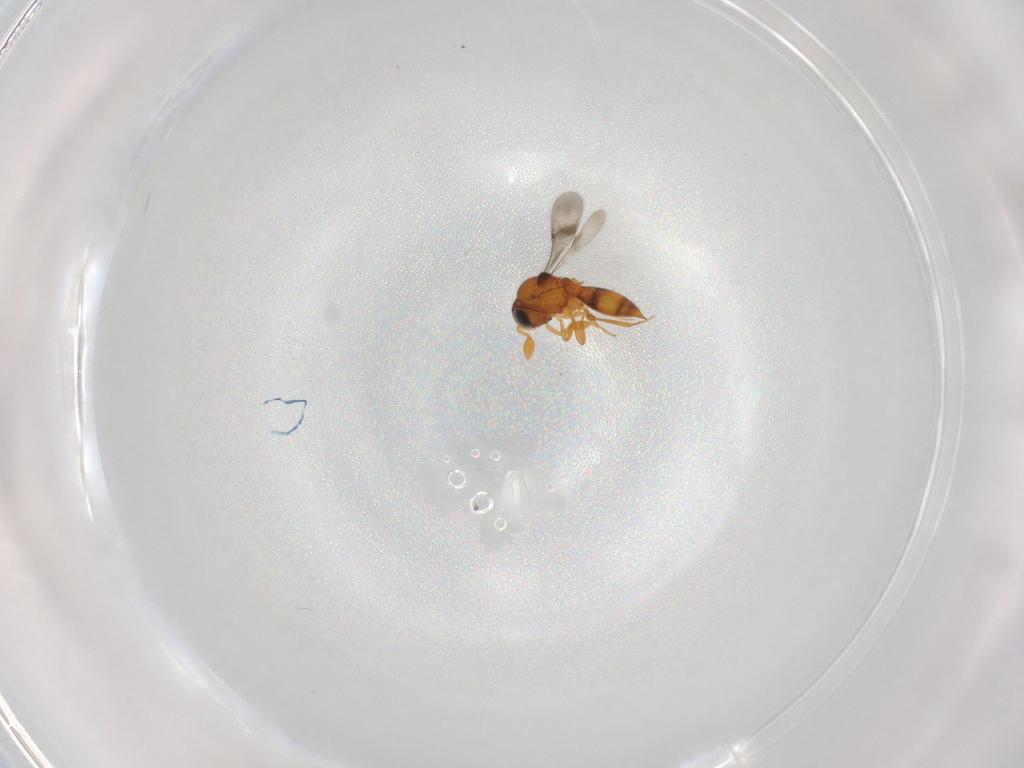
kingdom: Animalia
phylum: Arthropoda
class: Insecta
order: Hymenoptera
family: Scelionidae
